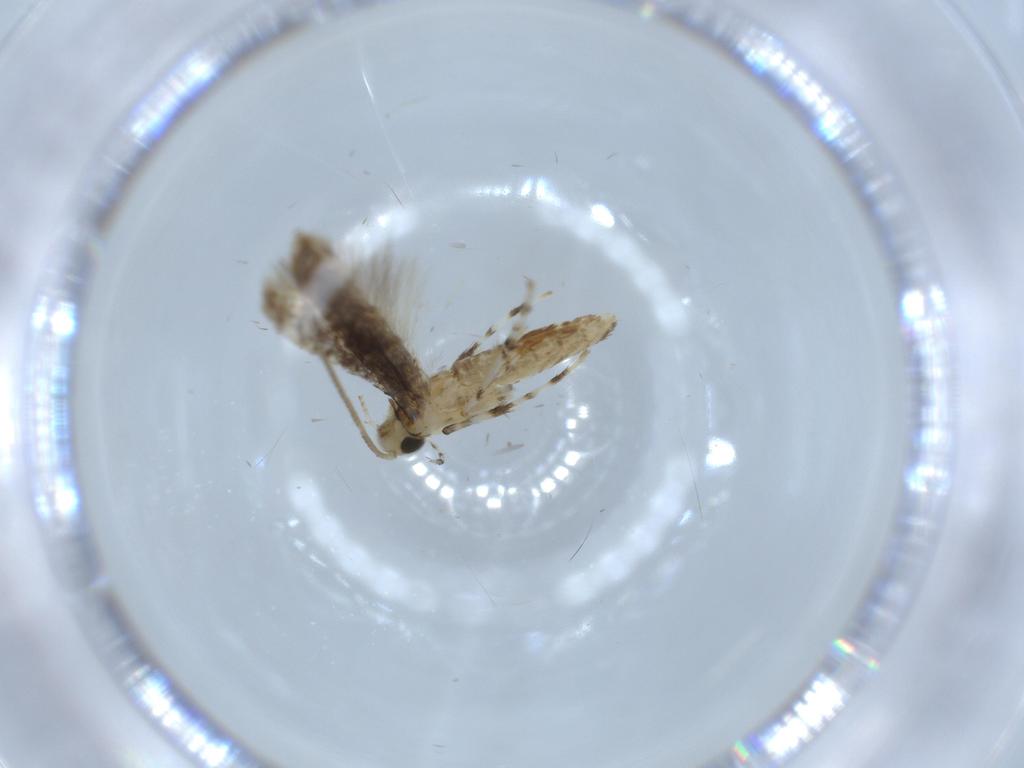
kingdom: Animalia
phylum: Arthropoda
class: Insecta
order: Lepidoptera
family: Gracillariidae
